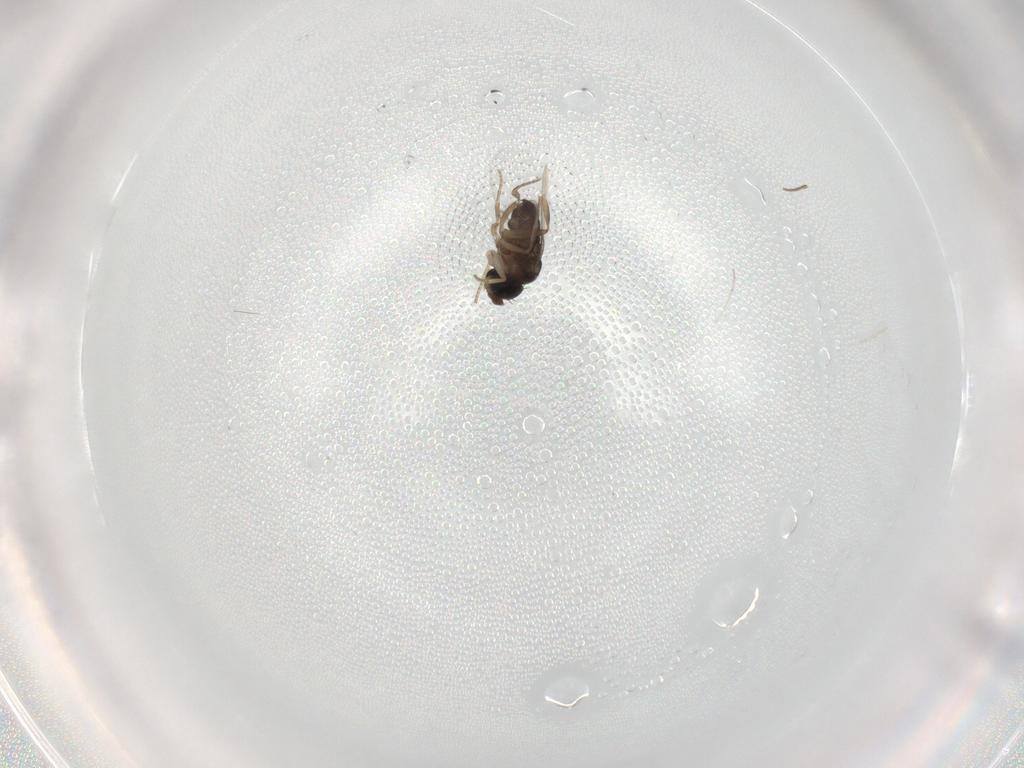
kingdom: Animalia
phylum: Arthropoda
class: Insecta
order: Diptera
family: Phoridae
